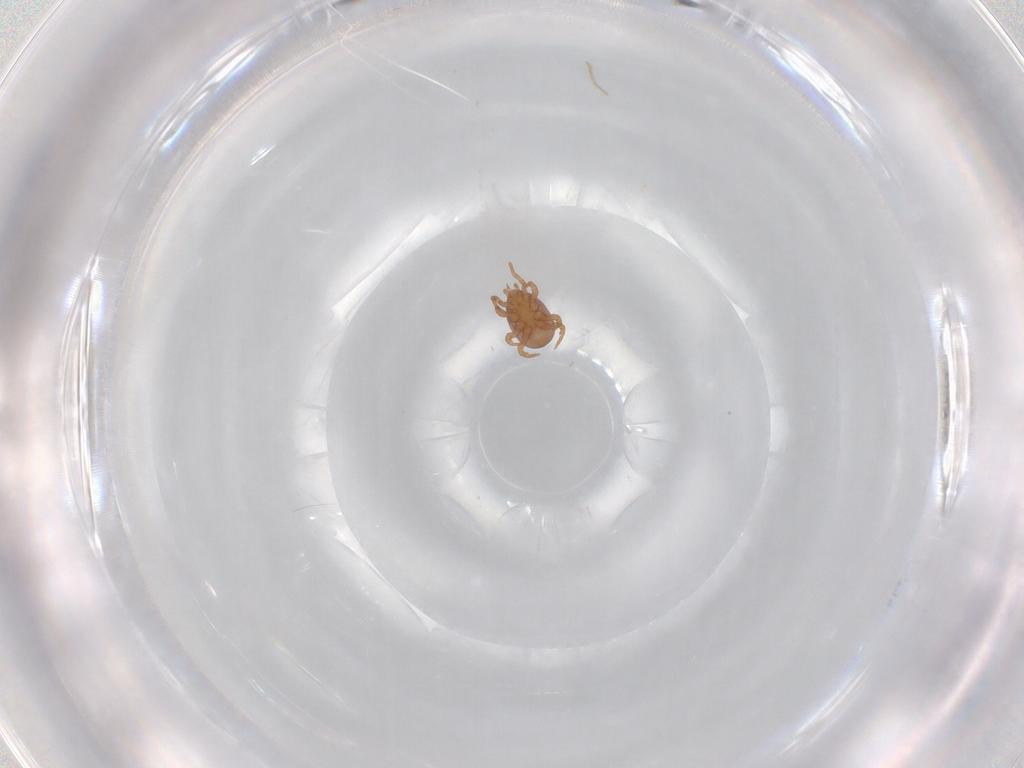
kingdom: Animalia
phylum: Arthropoda
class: Arachnida
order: Mesostigmata
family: Eviphididae
